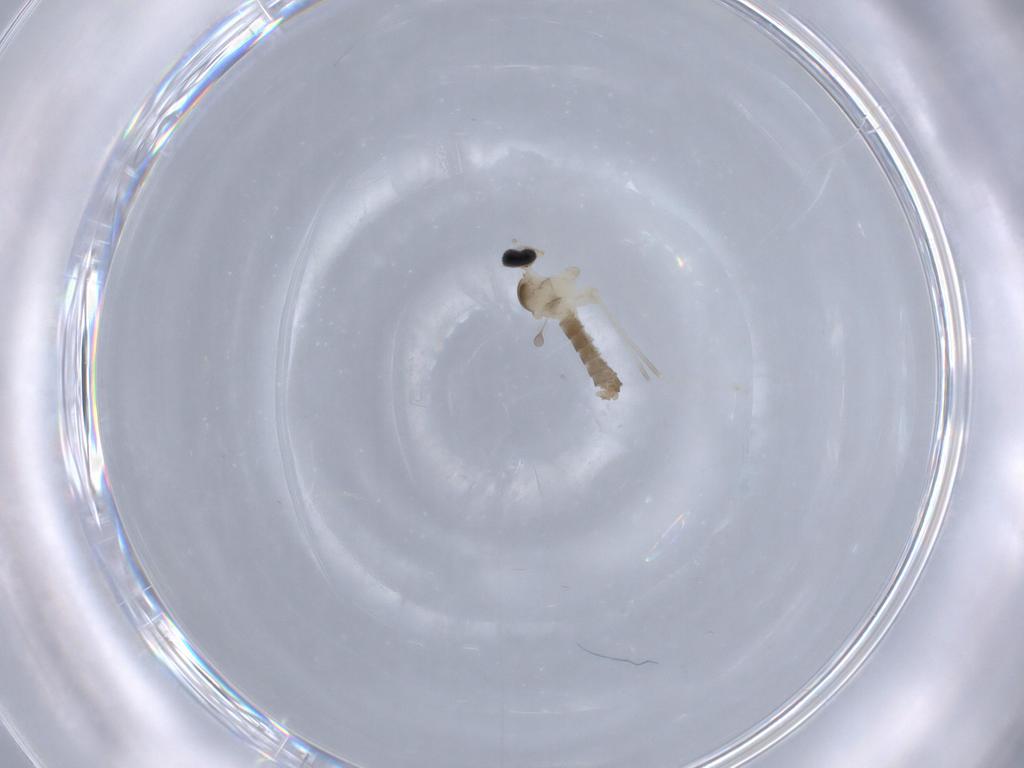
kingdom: Animalia
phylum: Arthropoda
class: Insecta
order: Diptera
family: Cecidomyiidae
